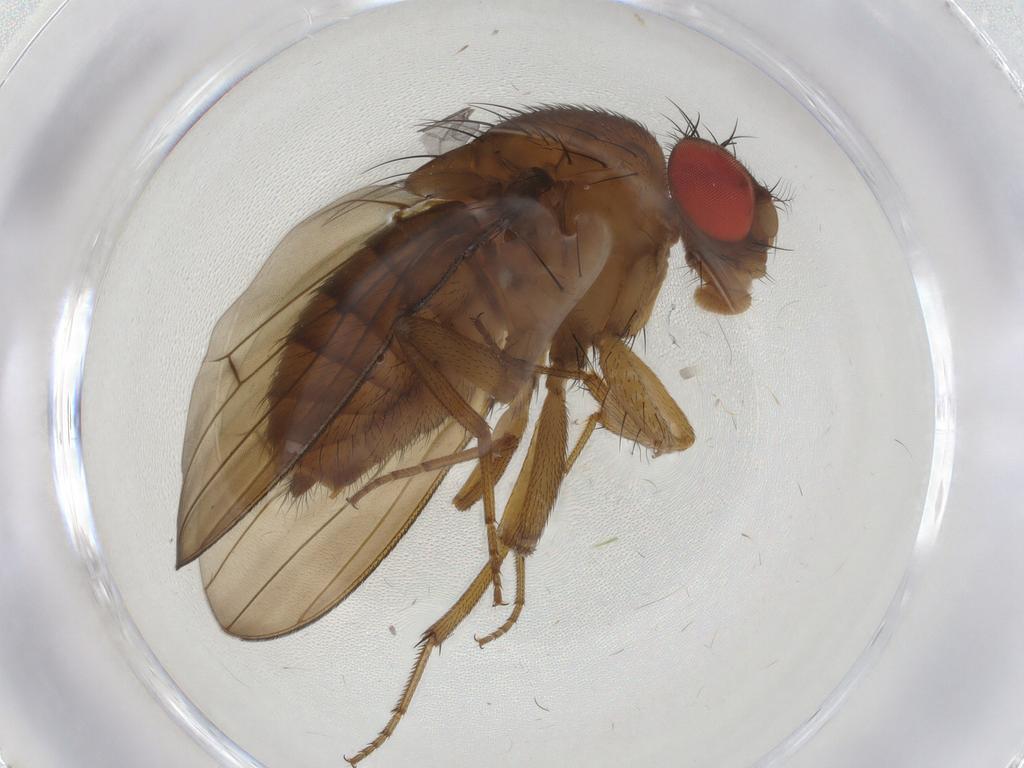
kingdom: Animalia
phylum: Arthropoda
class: Insecta
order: Diptera
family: Drosophilidae
